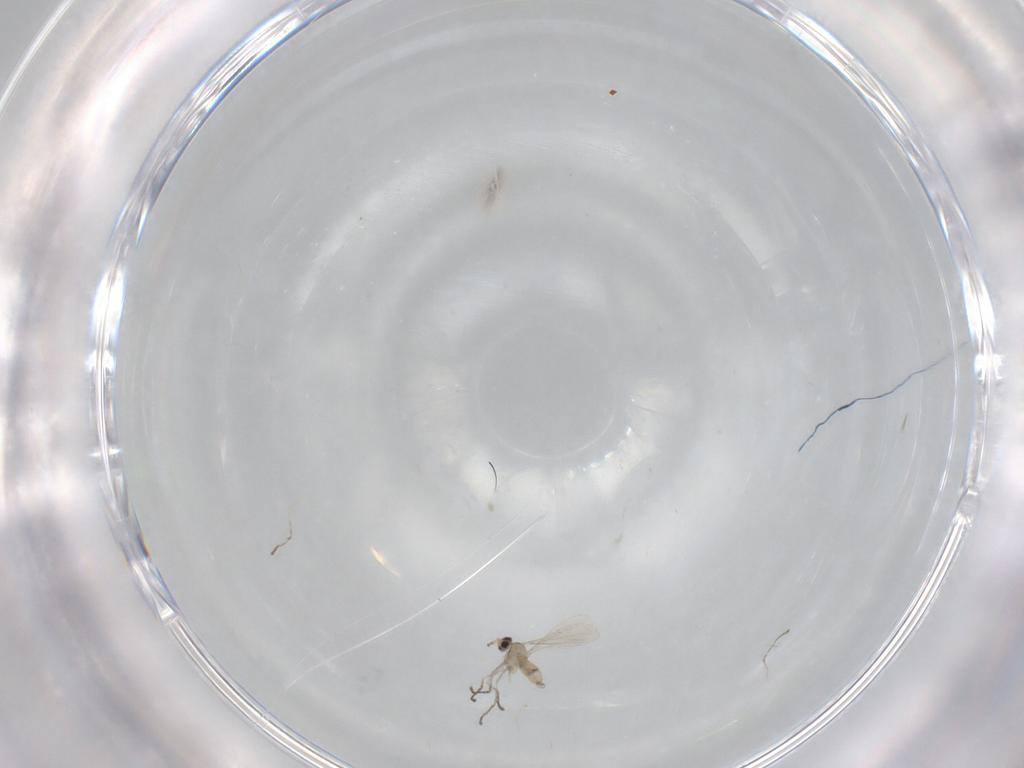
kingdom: Animalia
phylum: Arthropoda
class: Insecta
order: Diptera
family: Cecidomyiidae
